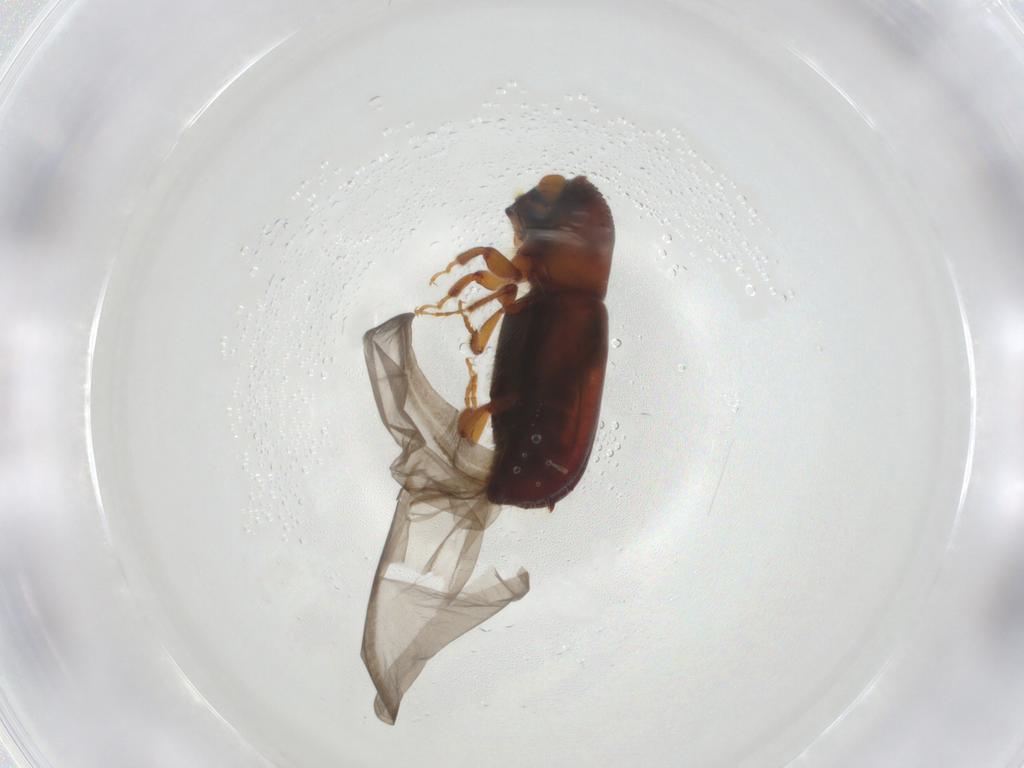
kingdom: Animalia
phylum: Arthropoda
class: Insecta
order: Coleoptera
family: Curculionidae
